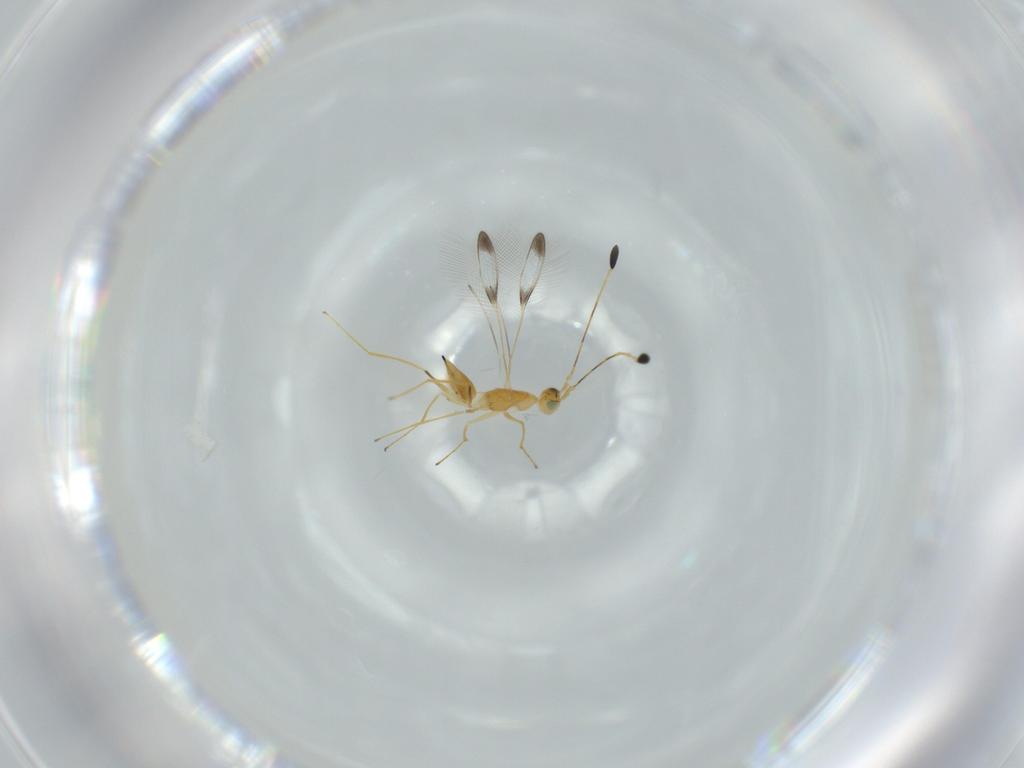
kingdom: Animalia
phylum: Arthropoda
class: Insecta
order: Hymenoptera
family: Mymaridae
